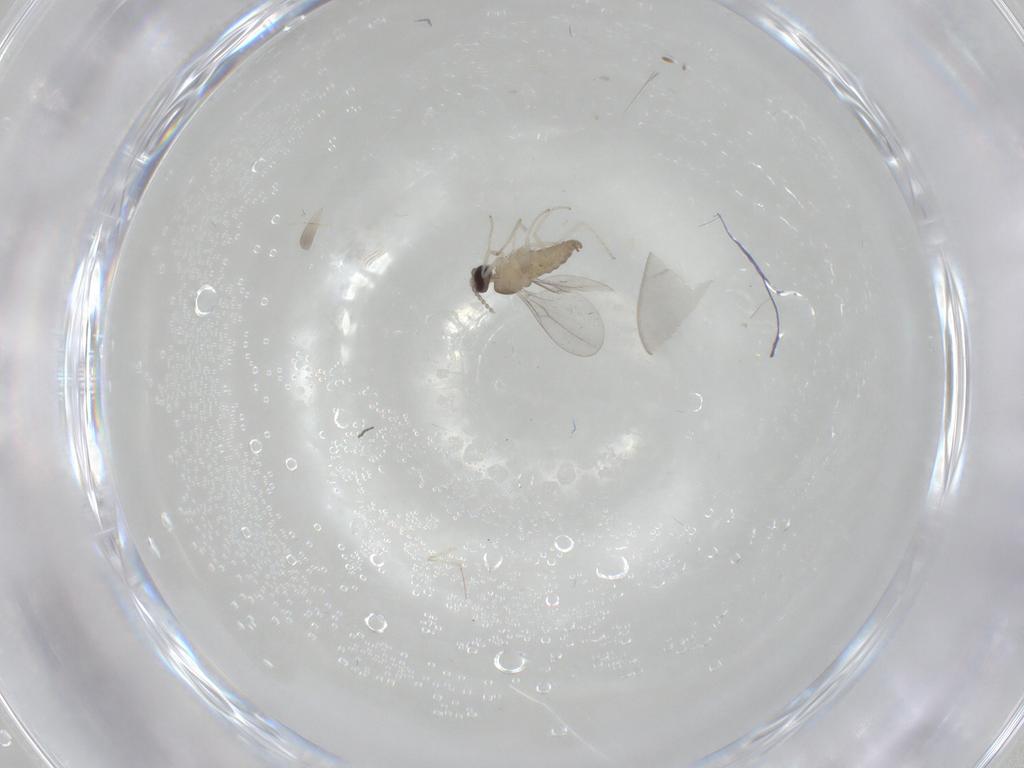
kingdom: Animalia
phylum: Arthropoda
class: Insecta
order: Diptera
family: Cecidomyiidae
